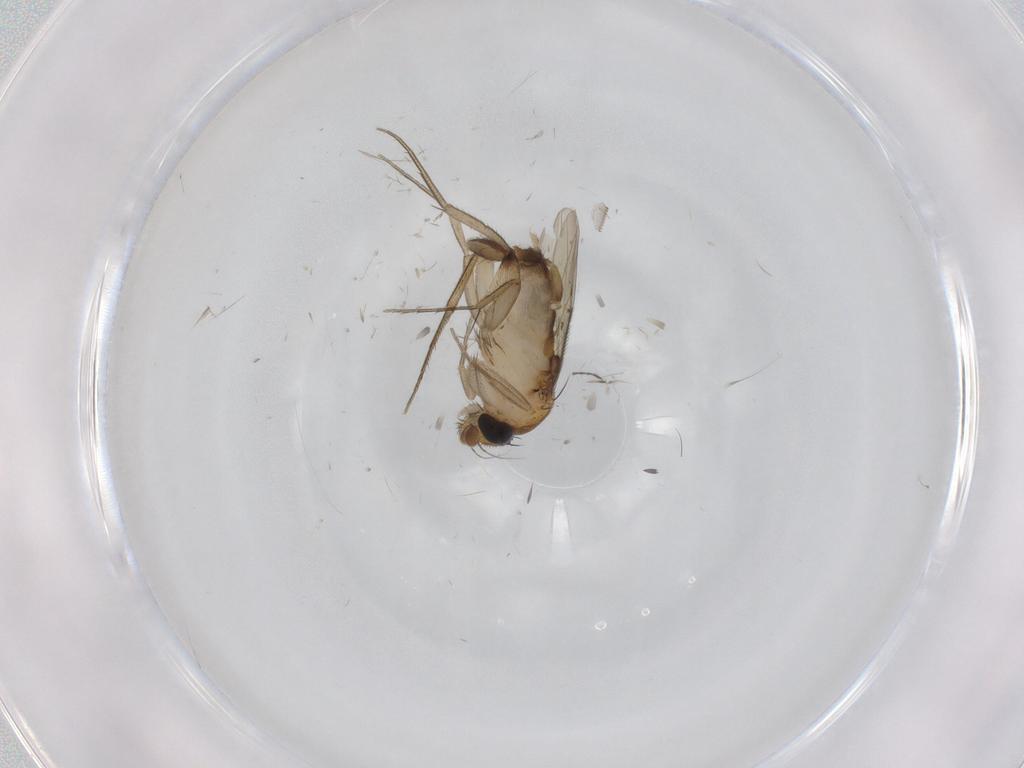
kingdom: Animalia
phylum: Arthropoda
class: Insecta
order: Diptera
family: Phoridae
